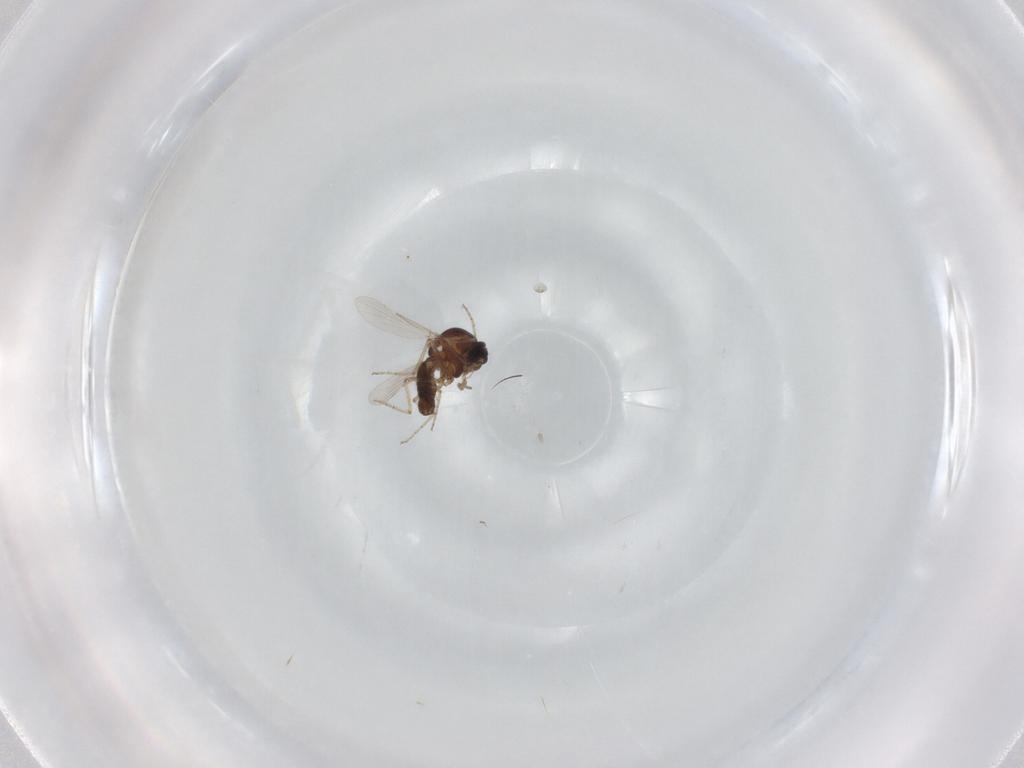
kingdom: Animalia
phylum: Arthropoda
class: Insecta
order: Diptera
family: Ceratopogonidae
